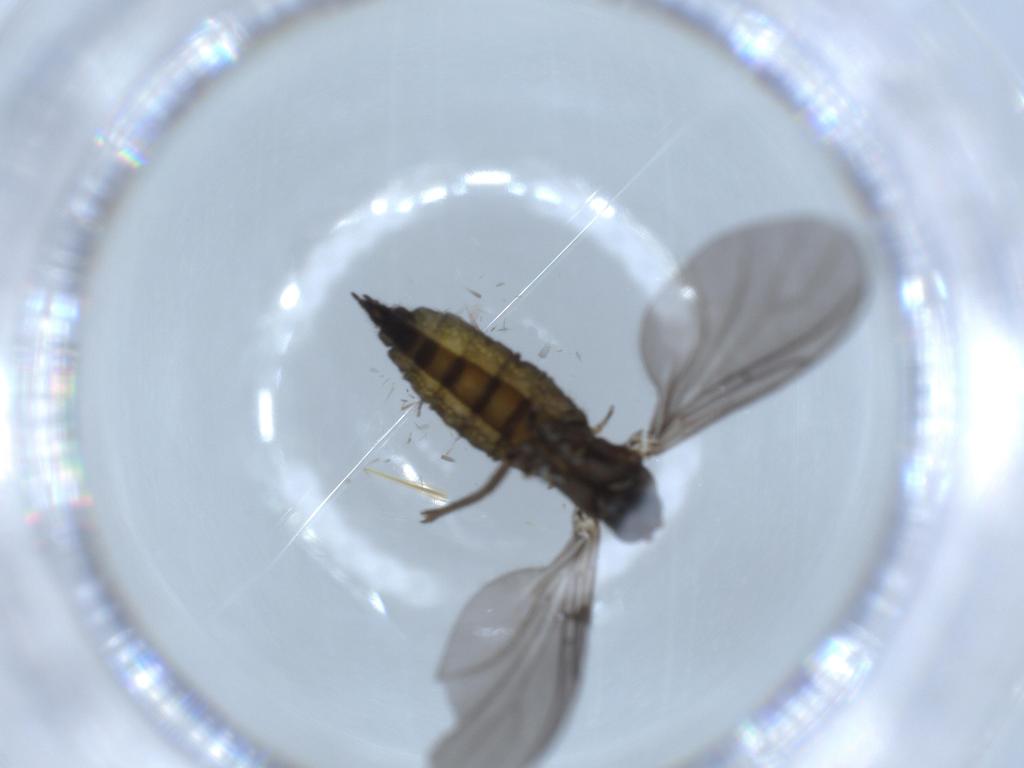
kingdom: Animalia
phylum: Arthropoda
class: Insecta
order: Diptera
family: Sciaridae
